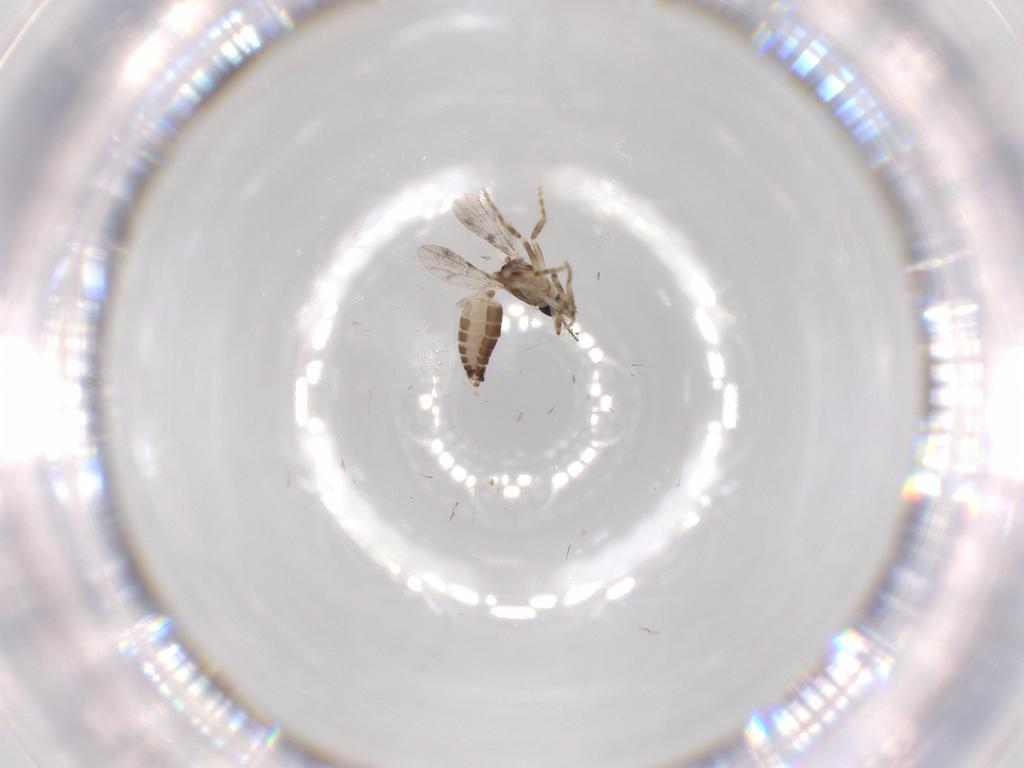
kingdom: Animalia
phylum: Arthropoda
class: Insecta
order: Diptera
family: Ceratopogonidae
